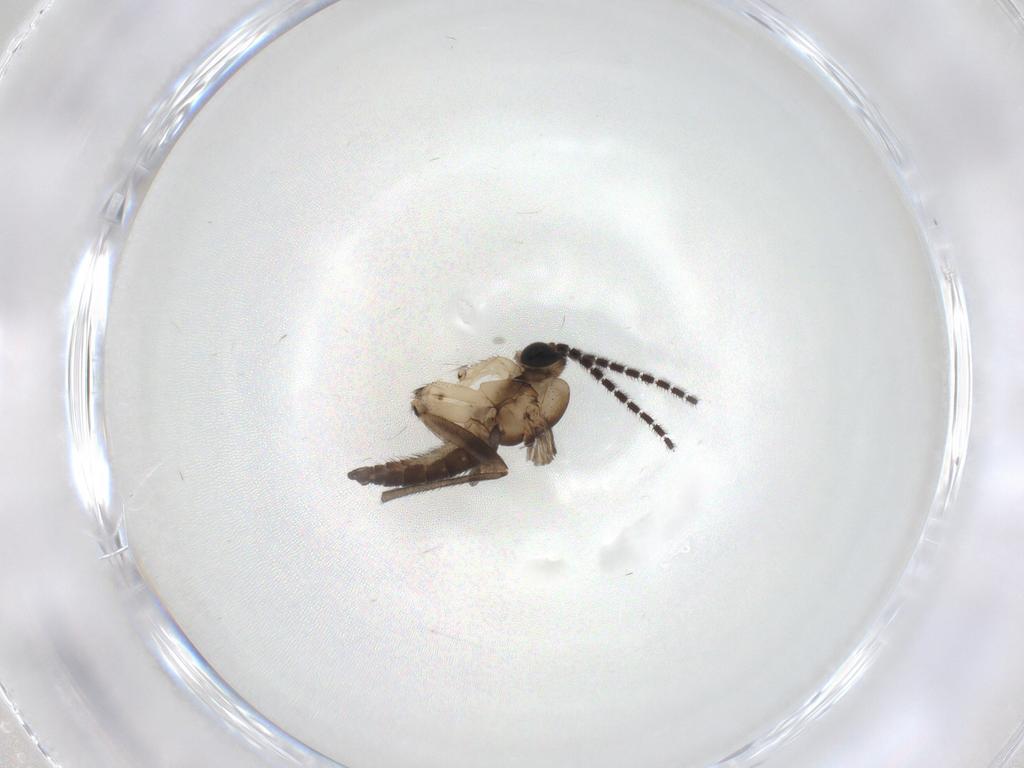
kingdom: Animalia
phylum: Arthropoda
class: Insecta
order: Diptera
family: Sciaridae
